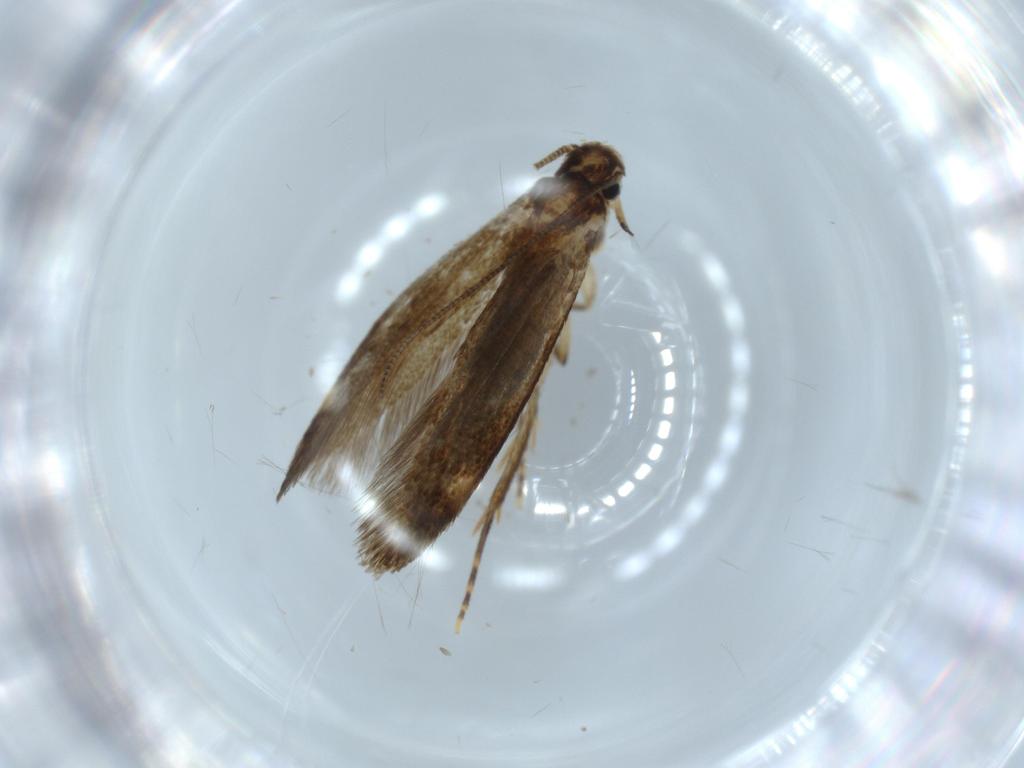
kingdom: Animalia
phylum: Arthropoda
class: Insecta
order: Lepidoptera
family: Tineidae
